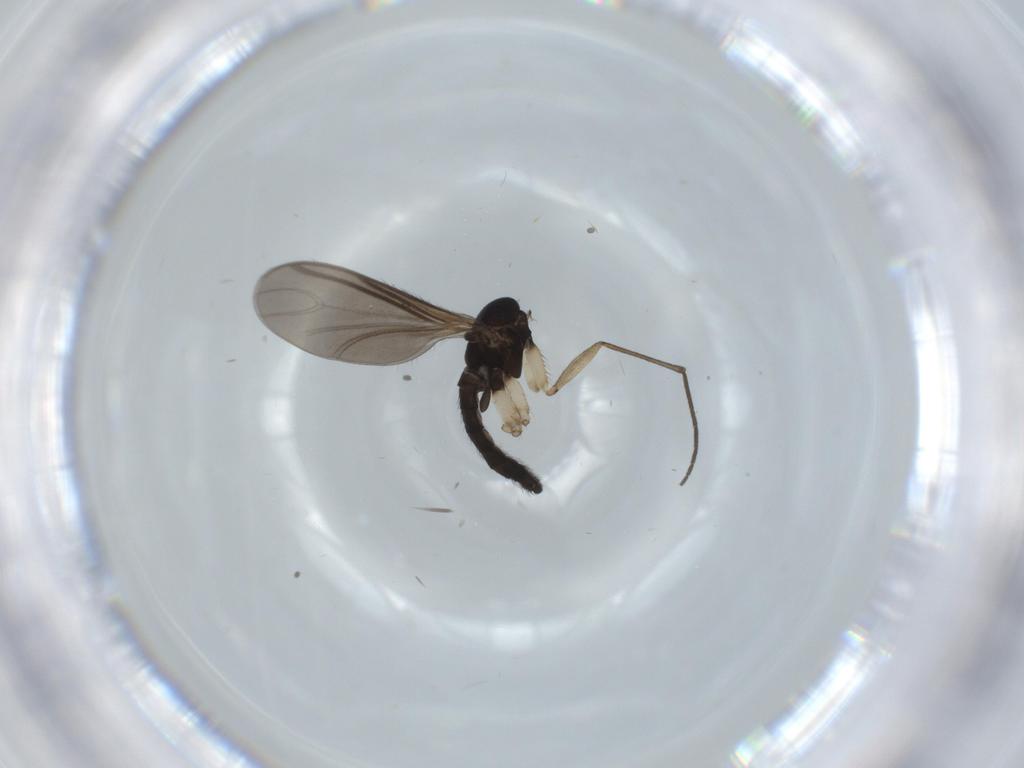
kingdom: Animalia
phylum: Arthropoda
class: Insecta
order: Diptera
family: Sciaridae
